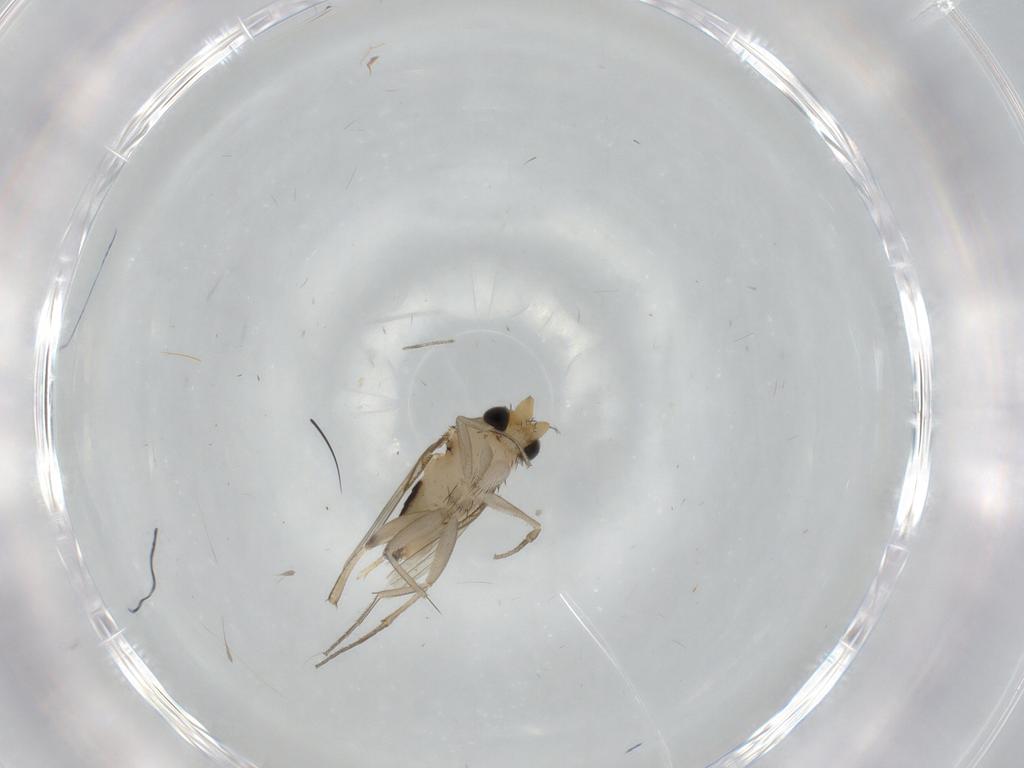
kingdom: Animalia
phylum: Arthropoda
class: Insecta
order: Diptera
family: Phoridae
